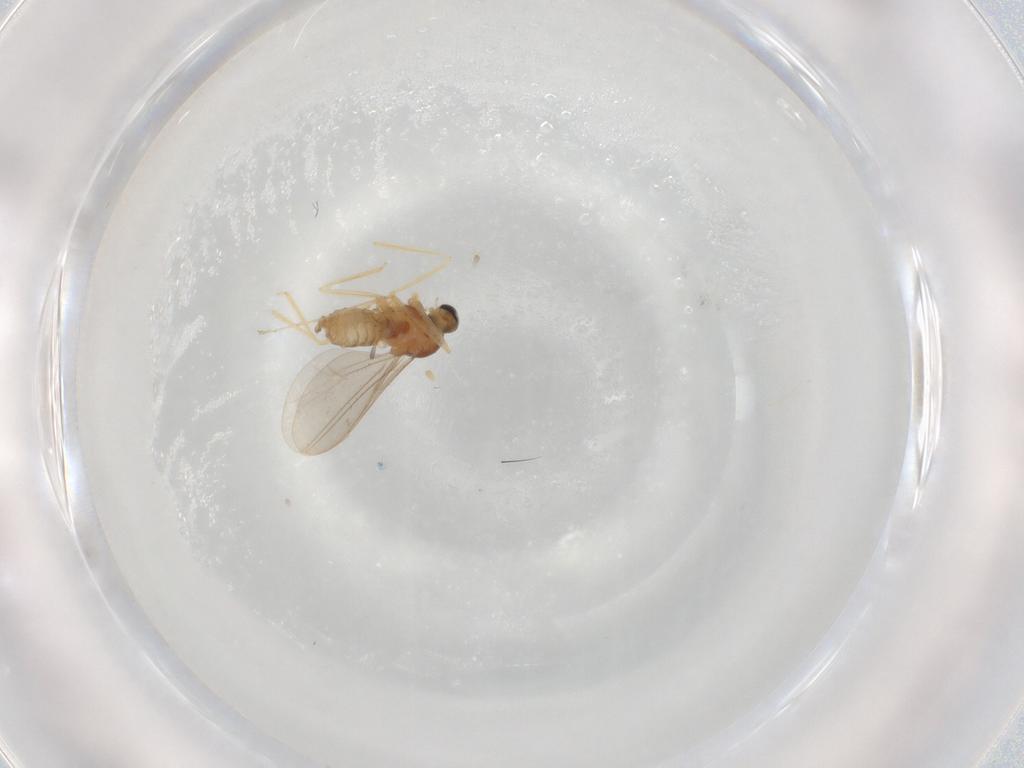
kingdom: Animalia
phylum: Arthropoda
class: Insecta
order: Diptera
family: Cecidomyiidae
